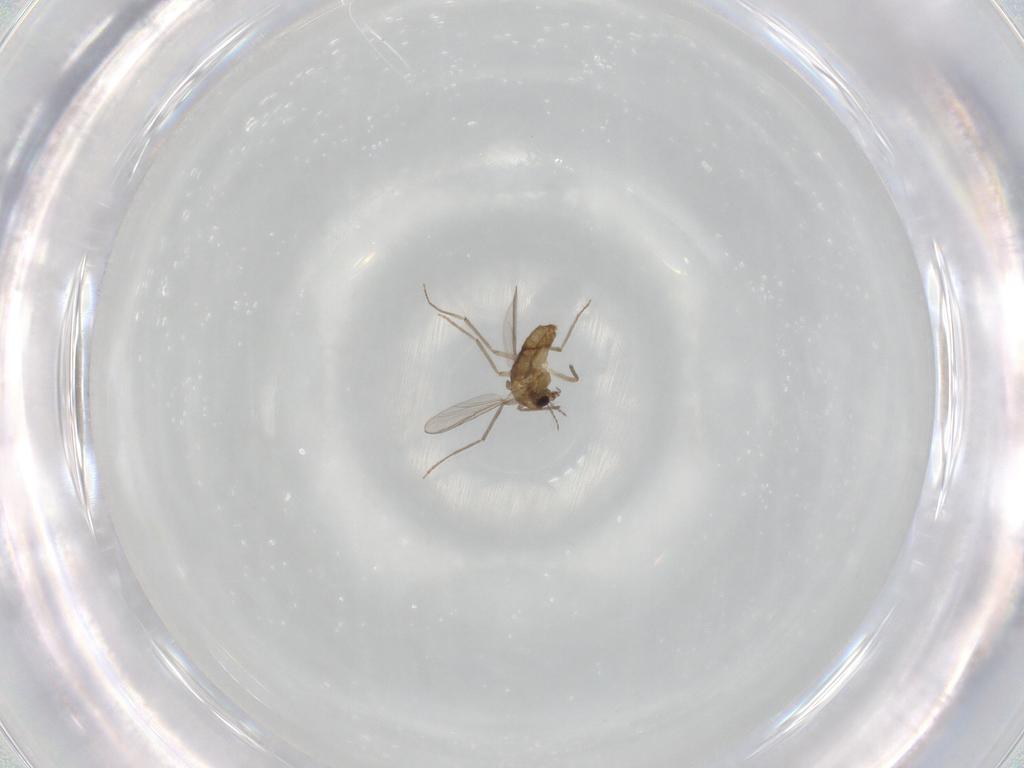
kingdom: Animalia
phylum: Arthropoda
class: Insecta
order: Diptera
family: Chironomidae
